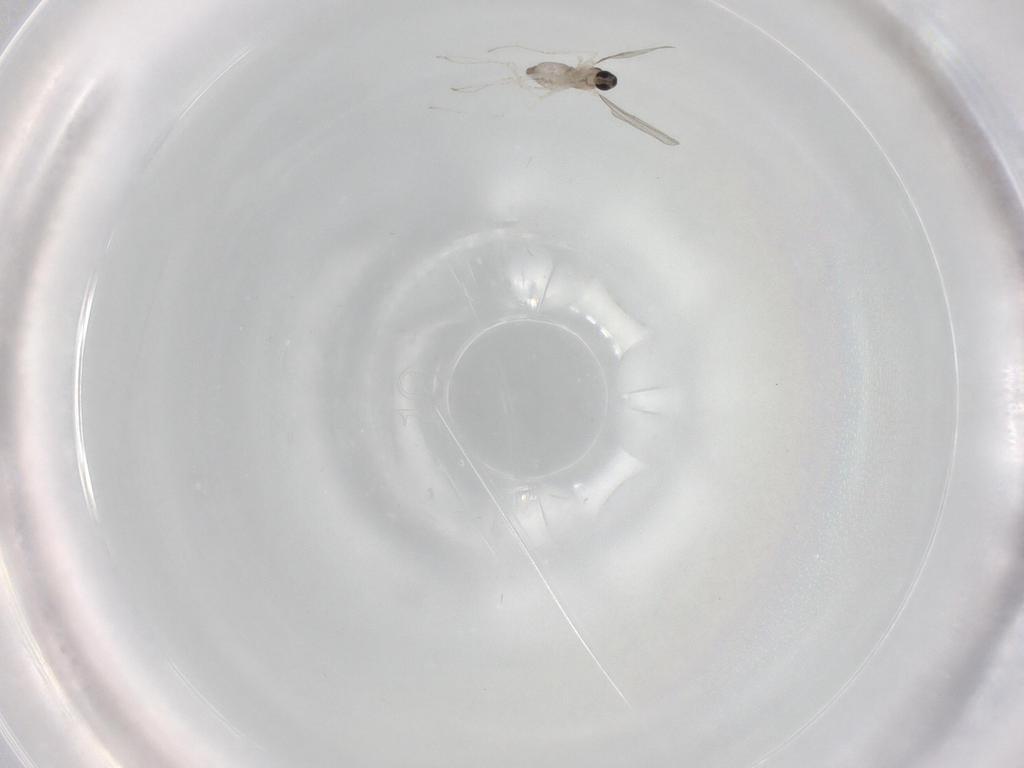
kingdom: Animalia
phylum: Arthropoda
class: Insecta
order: Diptera
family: Cecidomyiidae
